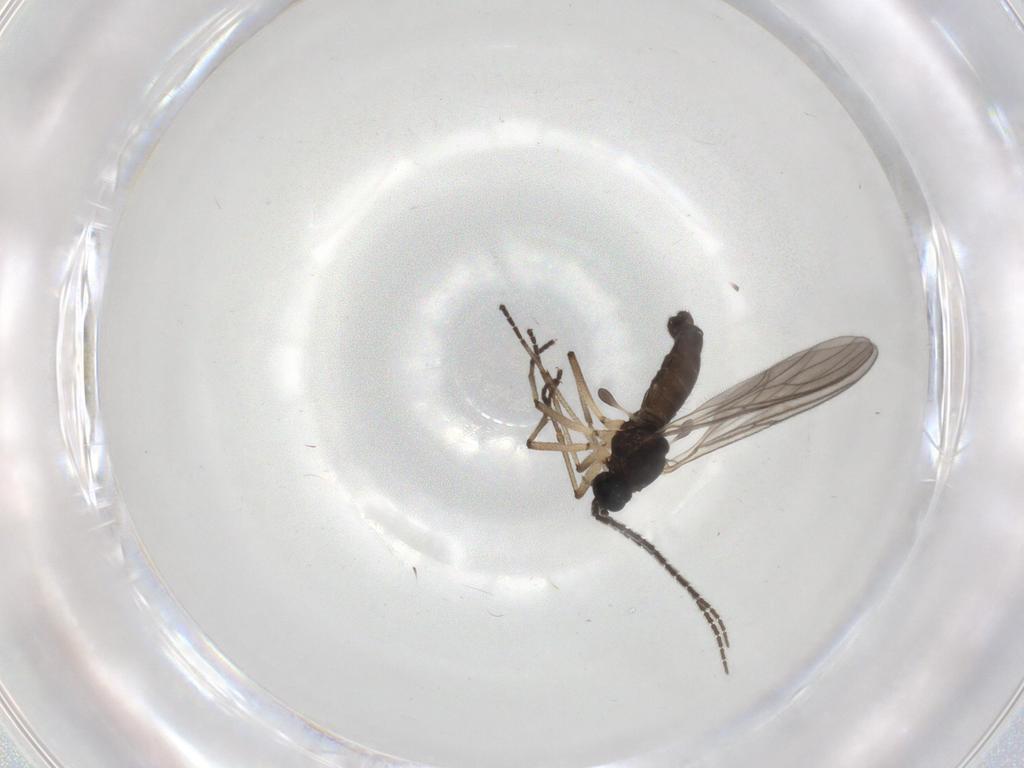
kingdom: Animalia
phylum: Arthropoda
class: Insecta
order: Diptera
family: Sciaridae
